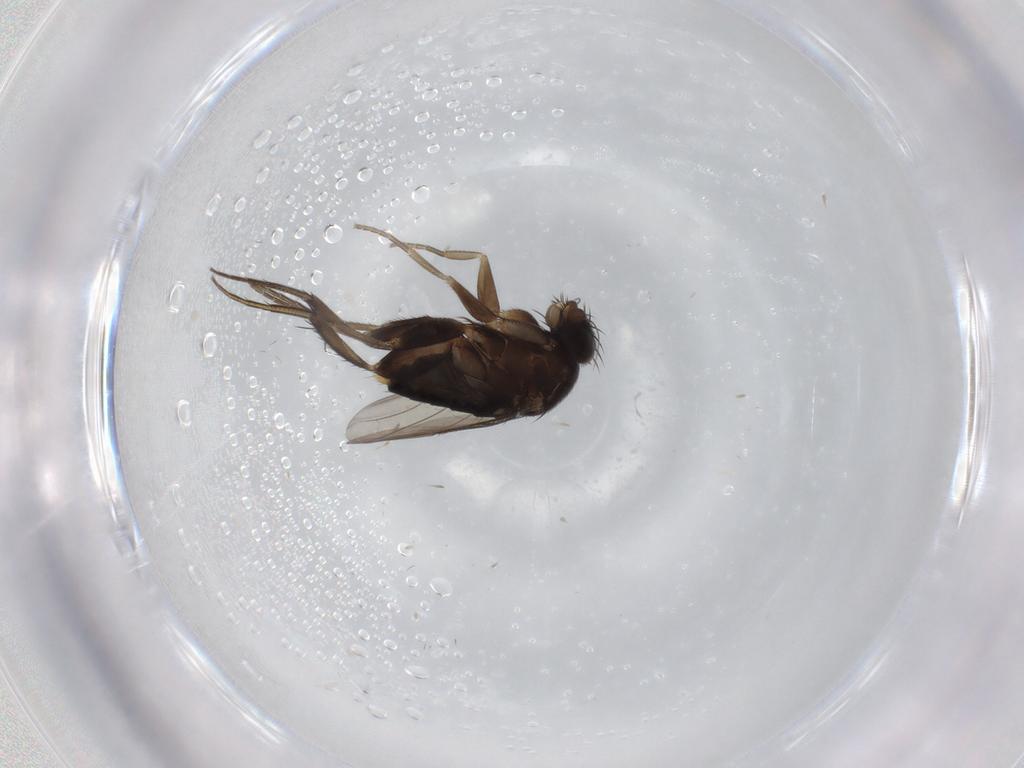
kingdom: Animalia
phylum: Arthropoda
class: Insecta
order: Diptera
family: Phoridae
